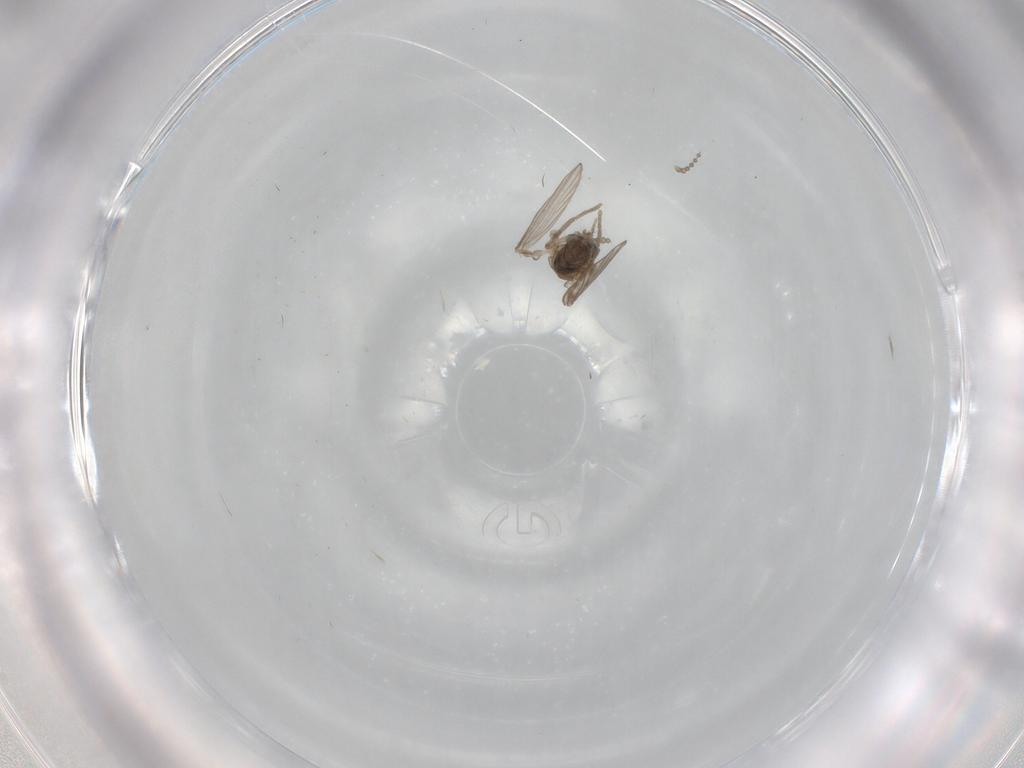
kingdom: Animalia
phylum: Arthropoda
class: Insecta
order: Diptera
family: Psychodidae
